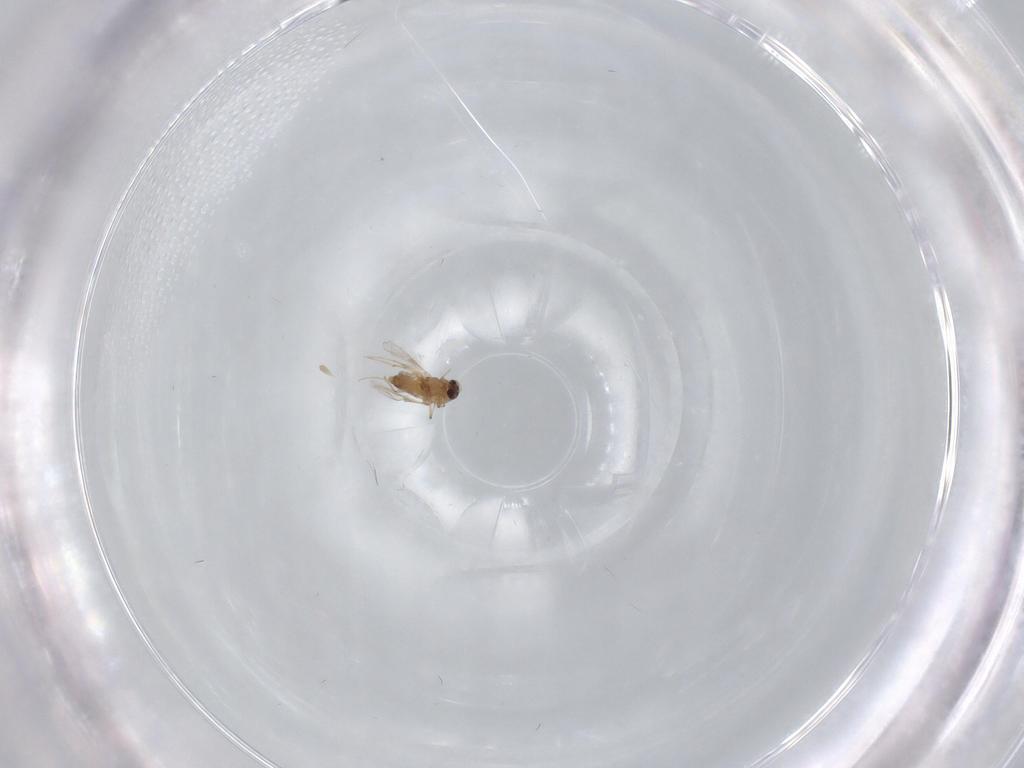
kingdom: Animalia
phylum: Arthropoda
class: Insecta
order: Diptera
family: Chironomidae
